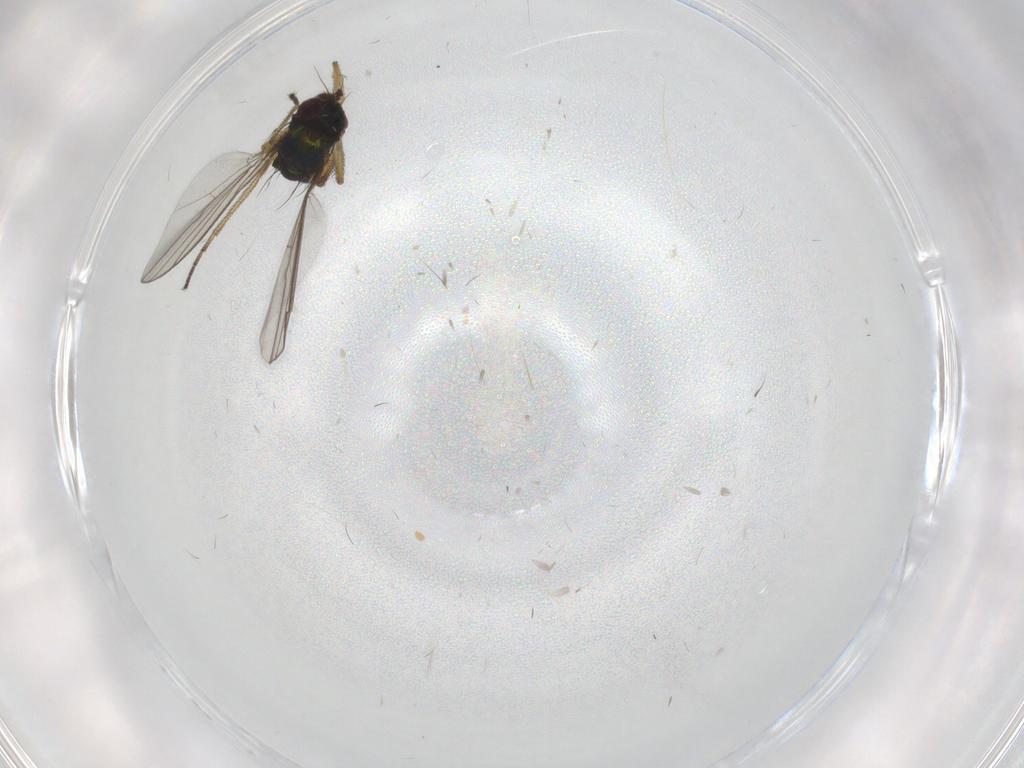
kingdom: Animalia
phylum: Arthropoda
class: Insecta
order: Diptera
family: Dolichopodidae
